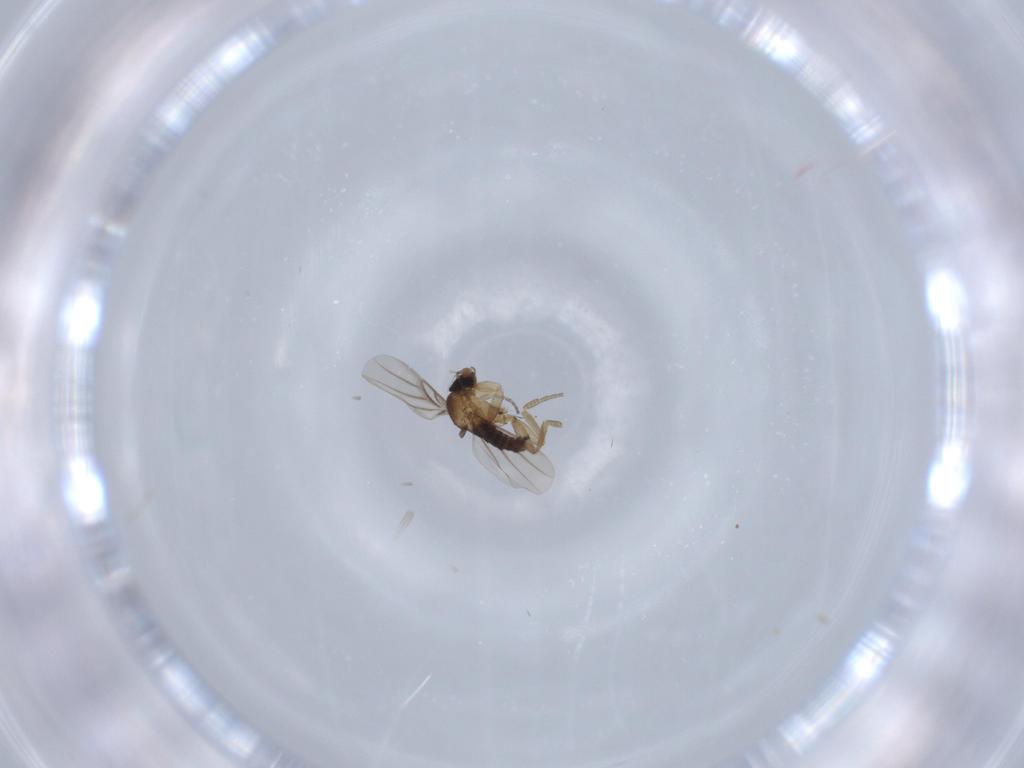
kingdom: Animalia
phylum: Arthropoda
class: Insecta
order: Diptera
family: Phoridae
